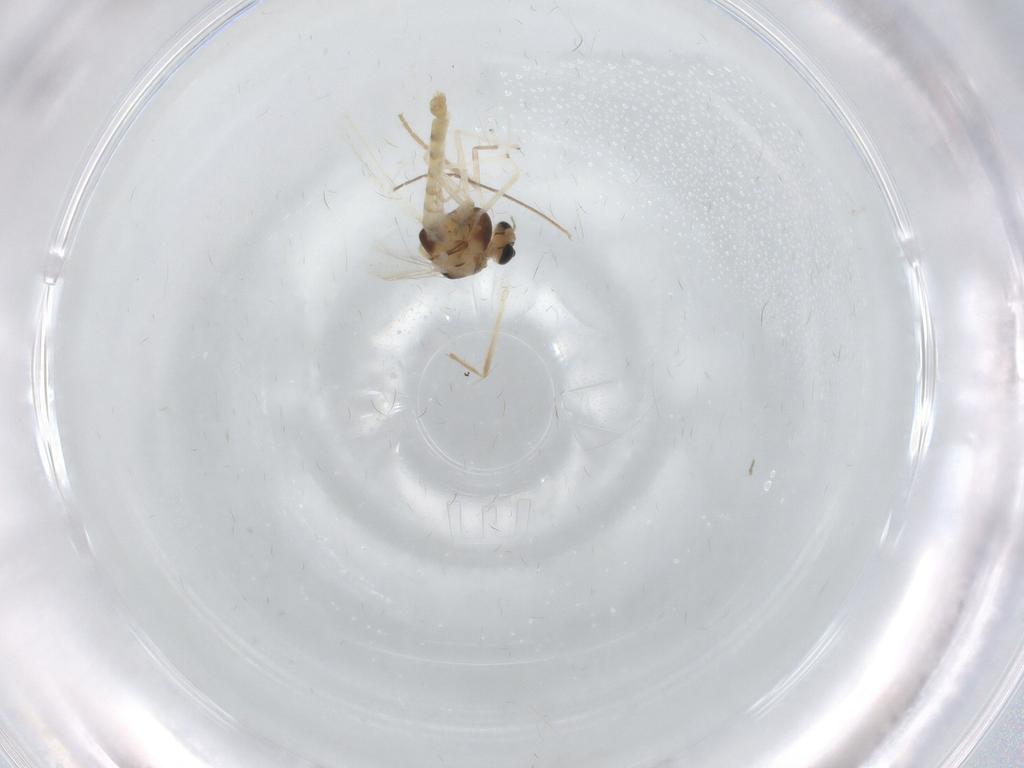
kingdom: Animalia
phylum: Arthropoda
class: Insecta
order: Diptera
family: Chironomidae
